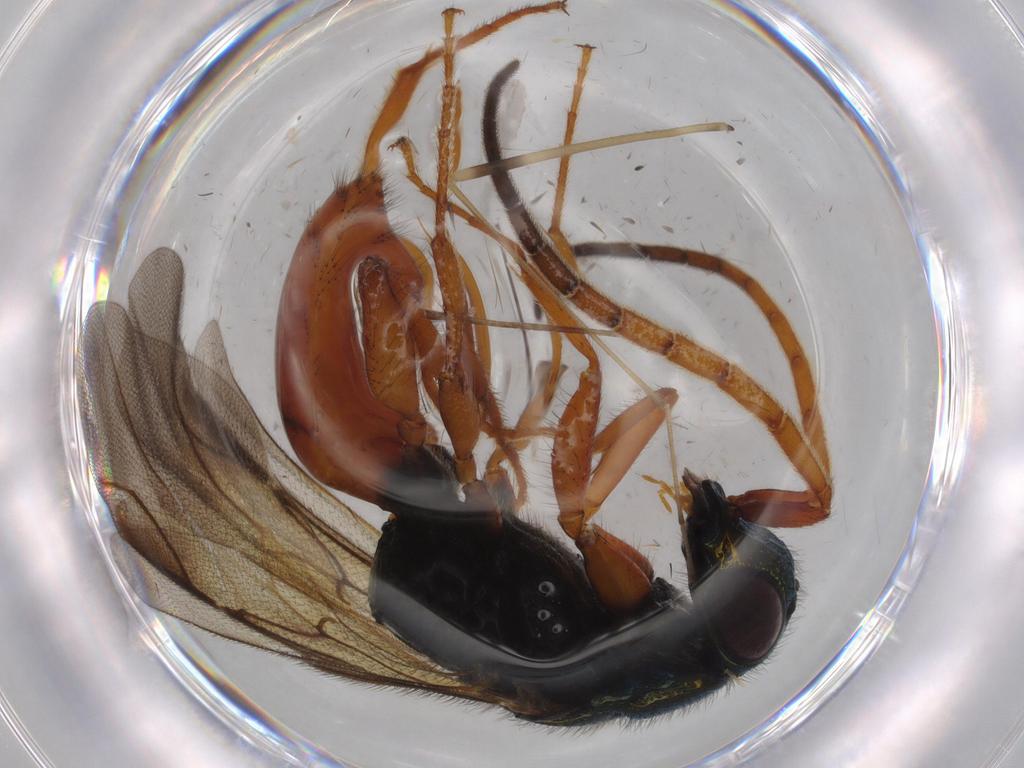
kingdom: Animalia
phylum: Arthropoda
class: Insecta
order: Hymenoptera
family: Chrysididae
